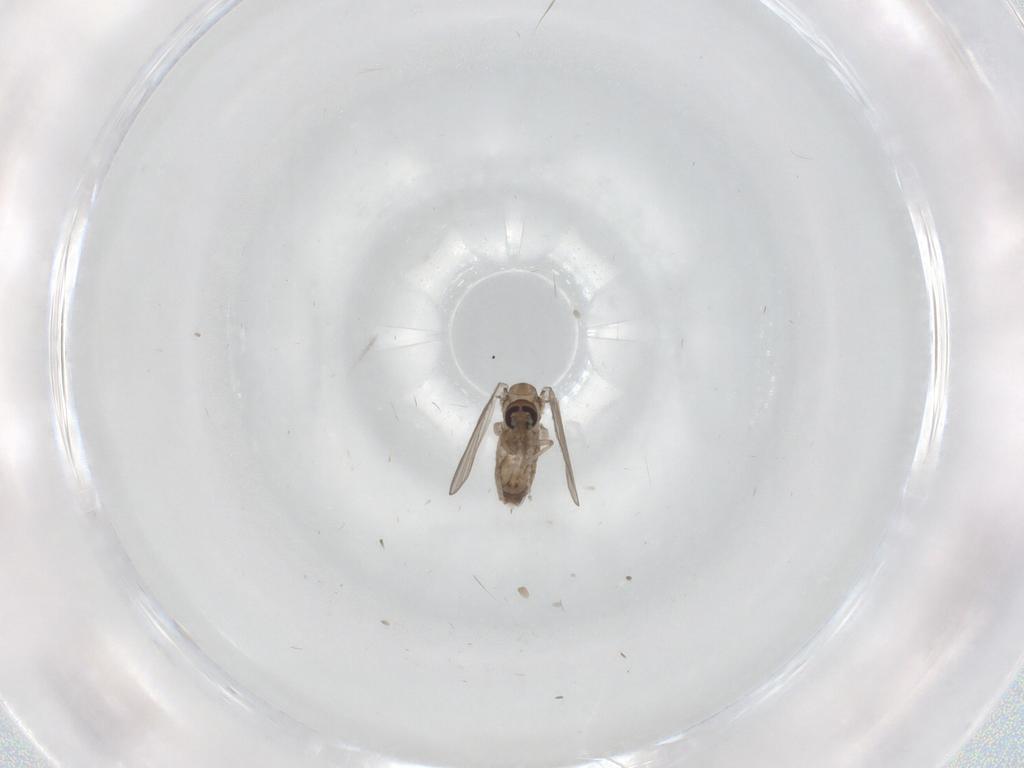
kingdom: Animalia
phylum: Arthropoda
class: Insecta
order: Diptera
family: Psychodidae
